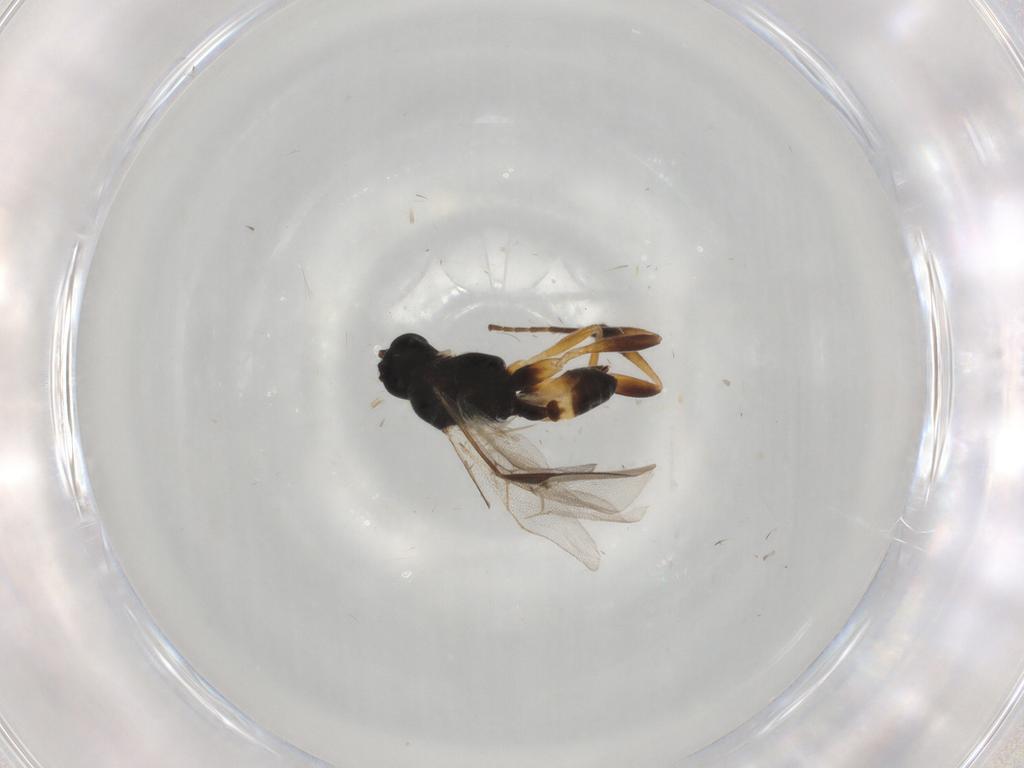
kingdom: Animalia
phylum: Arthropoda
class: Insecta
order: Hymenoptera
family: Braconidae
